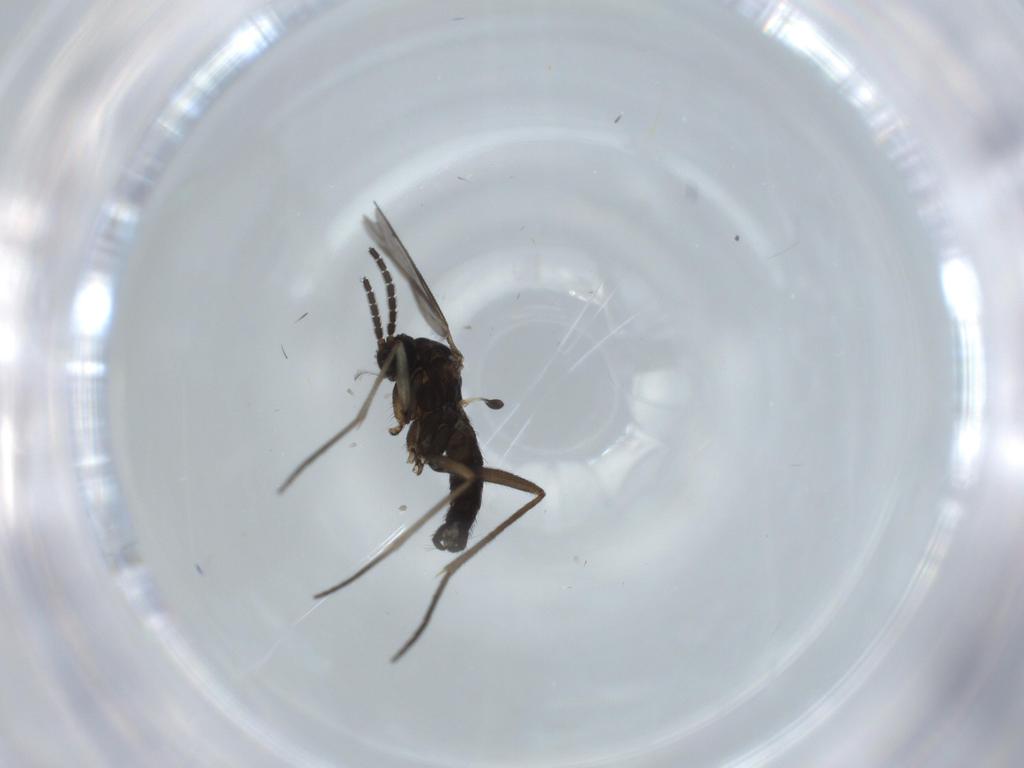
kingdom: Animalia
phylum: Arthropoda
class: Insecta
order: Diptera
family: Sciaridae
